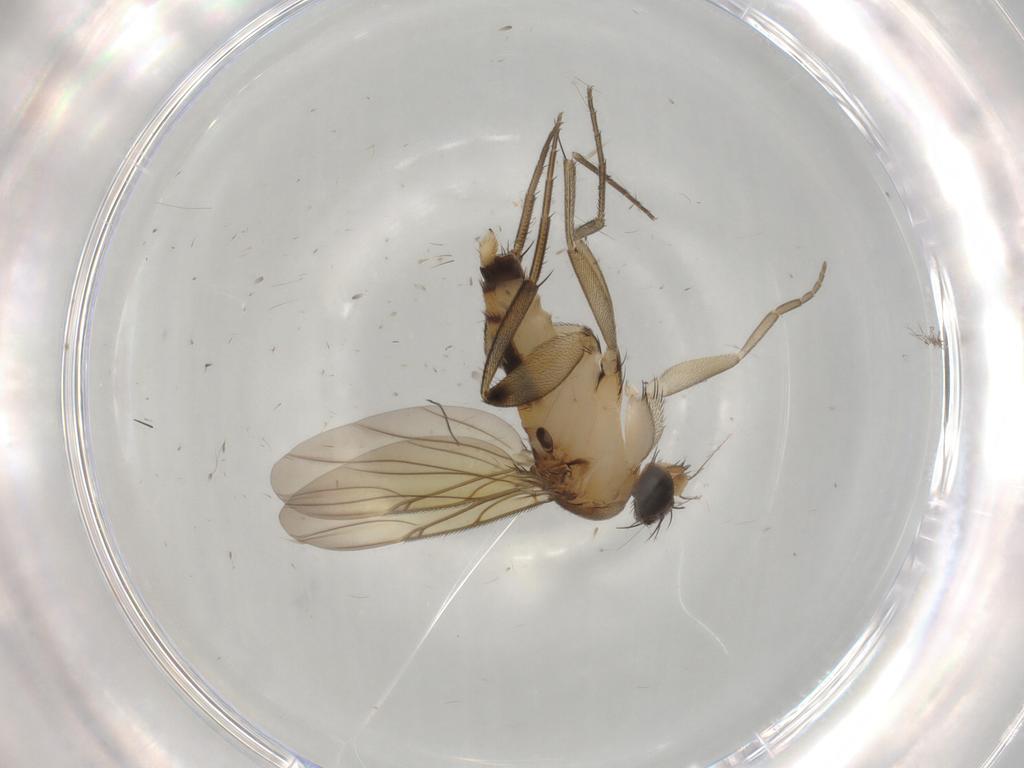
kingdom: Animalia
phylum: Arthropoda
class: Insecta
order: Diptera
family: Phoridae
